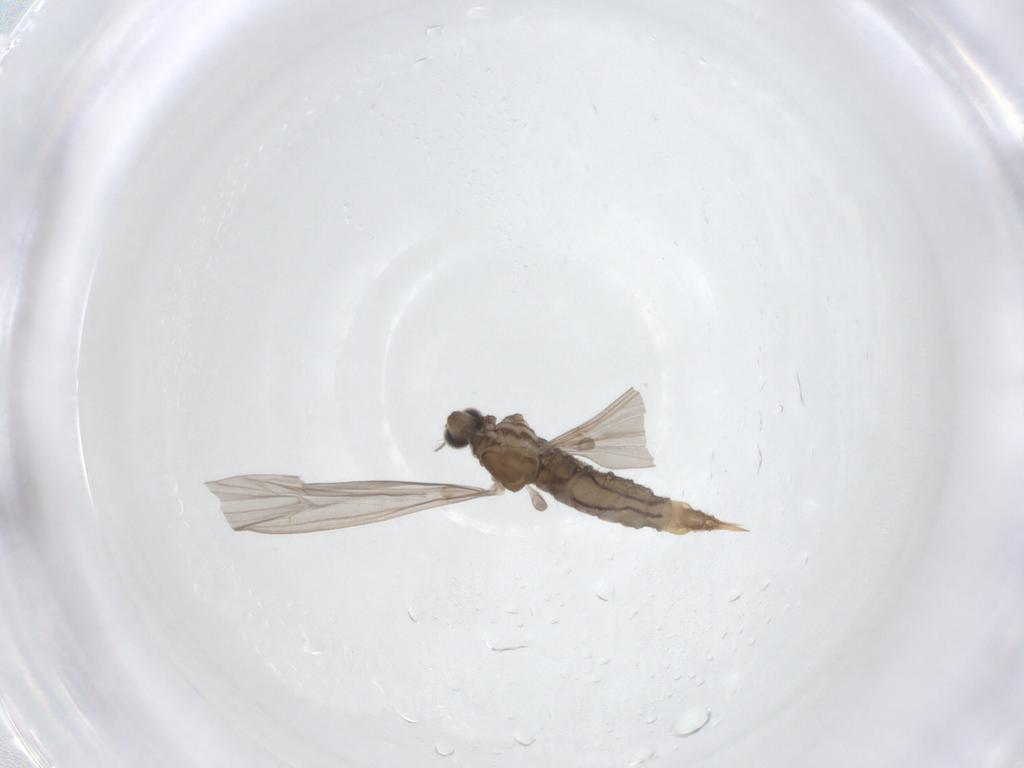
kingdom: Animalia
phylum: Arthropoda
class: Insecta
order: Diptera
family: Limoniidae
